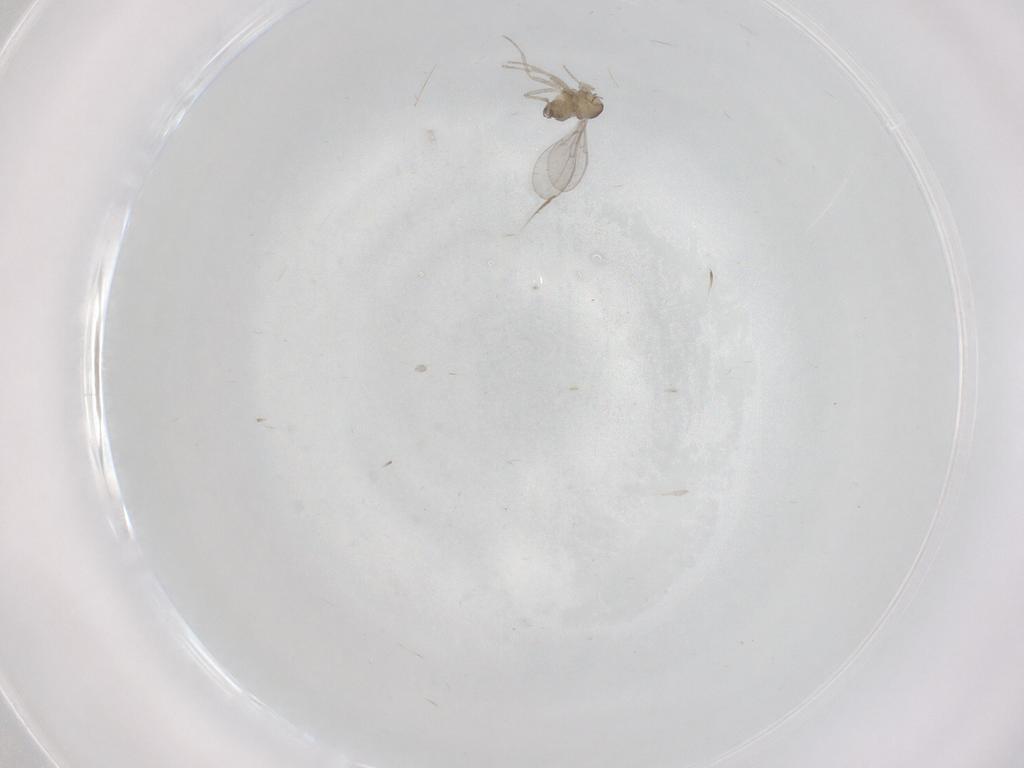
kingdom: Animalia
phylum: Arthropoda
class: Insecta
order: Diptera
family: Cecidomyiidae
